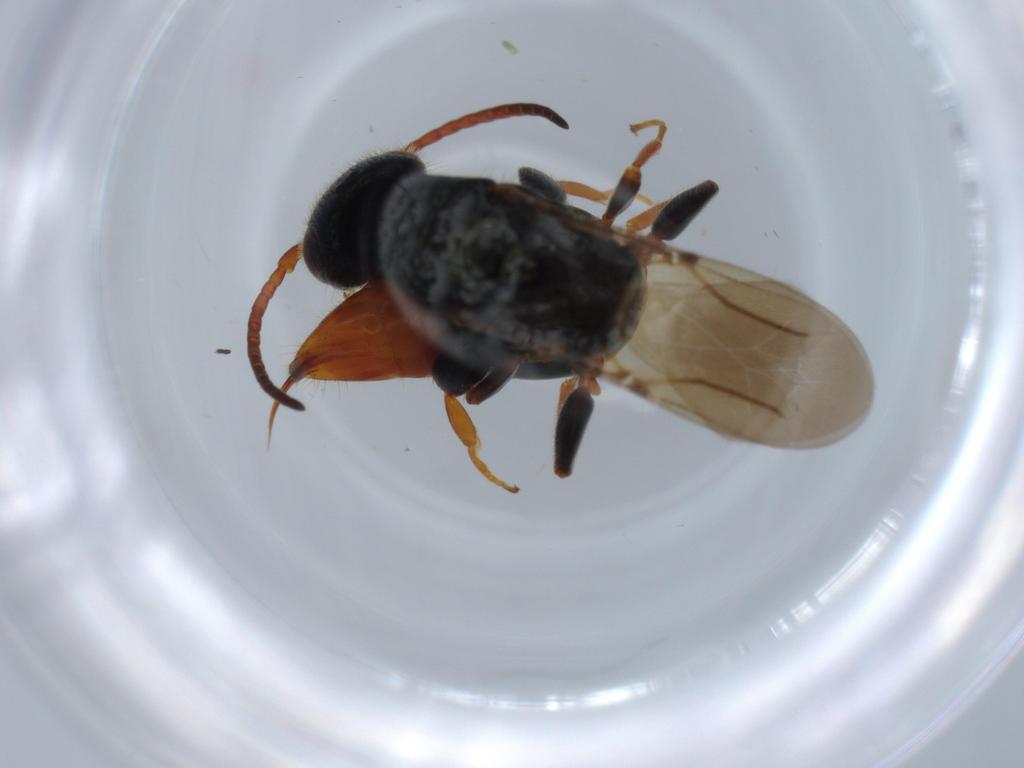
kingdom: Animalia
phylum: Arthropoda
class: Insecta
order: Hymenoptera
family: Bethylidae
